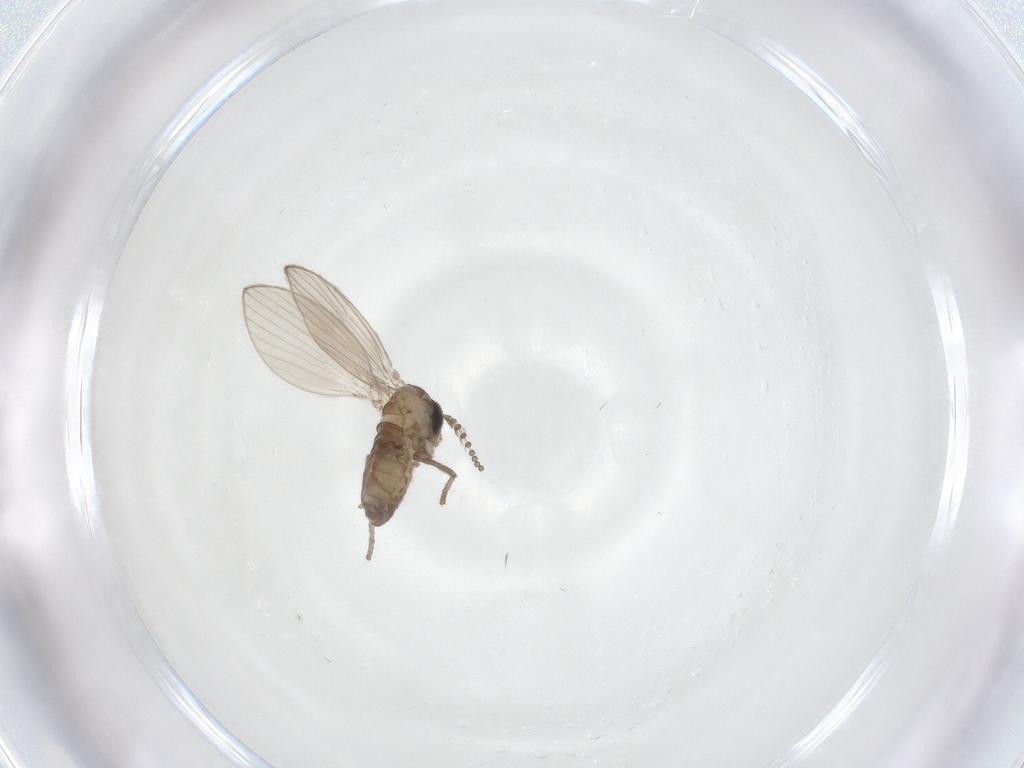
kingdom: Animalia
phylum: Arthropoda
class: Insecta
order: Diptera
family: Psychodidae
